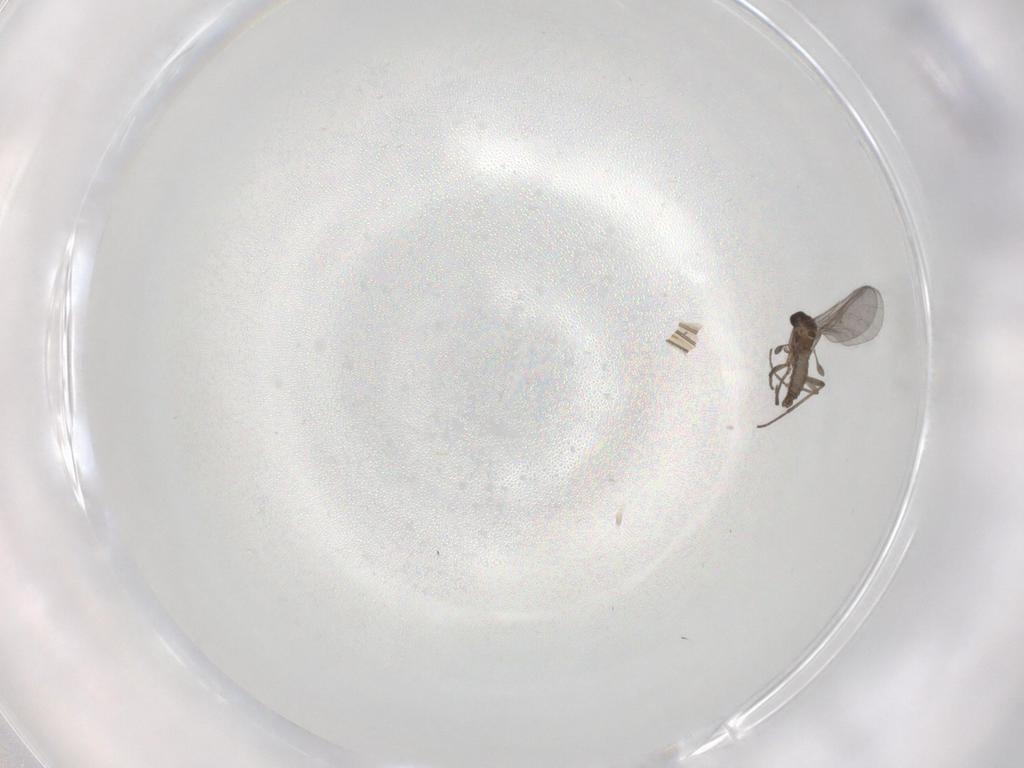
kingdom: Animalia
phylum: Arthropoda
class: Insecta
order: Diptera
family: Sciaridae
